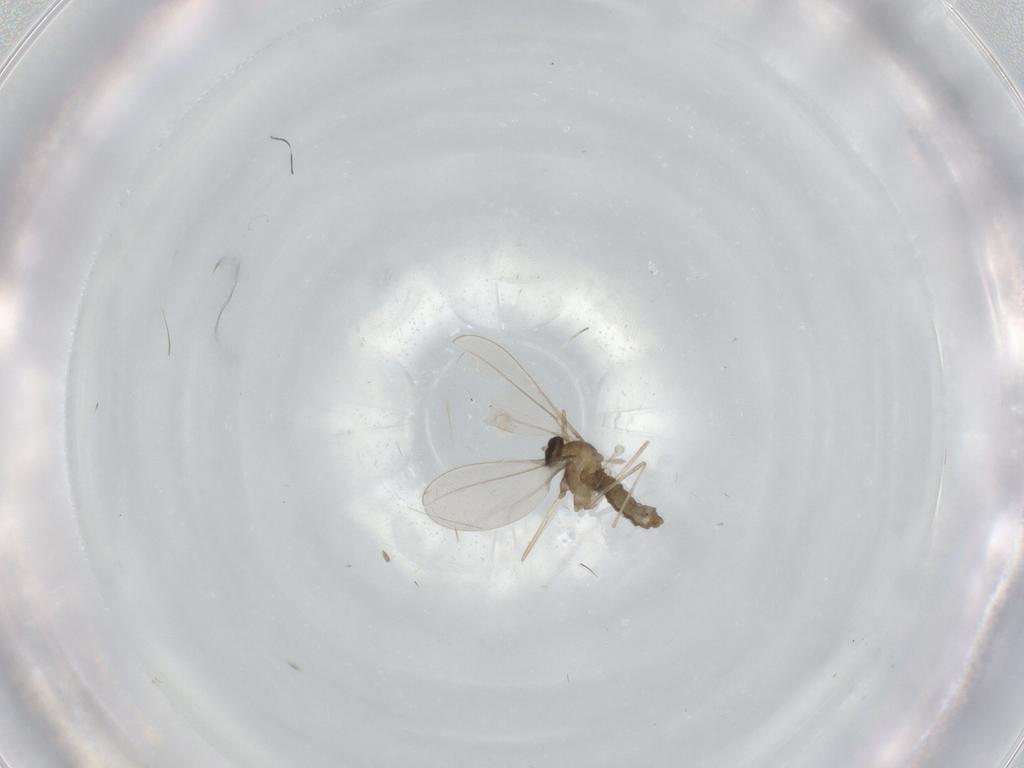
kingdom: Animalia
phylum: Arthropoda
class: Insecta
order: Diptera
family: Cecidomyiidae
